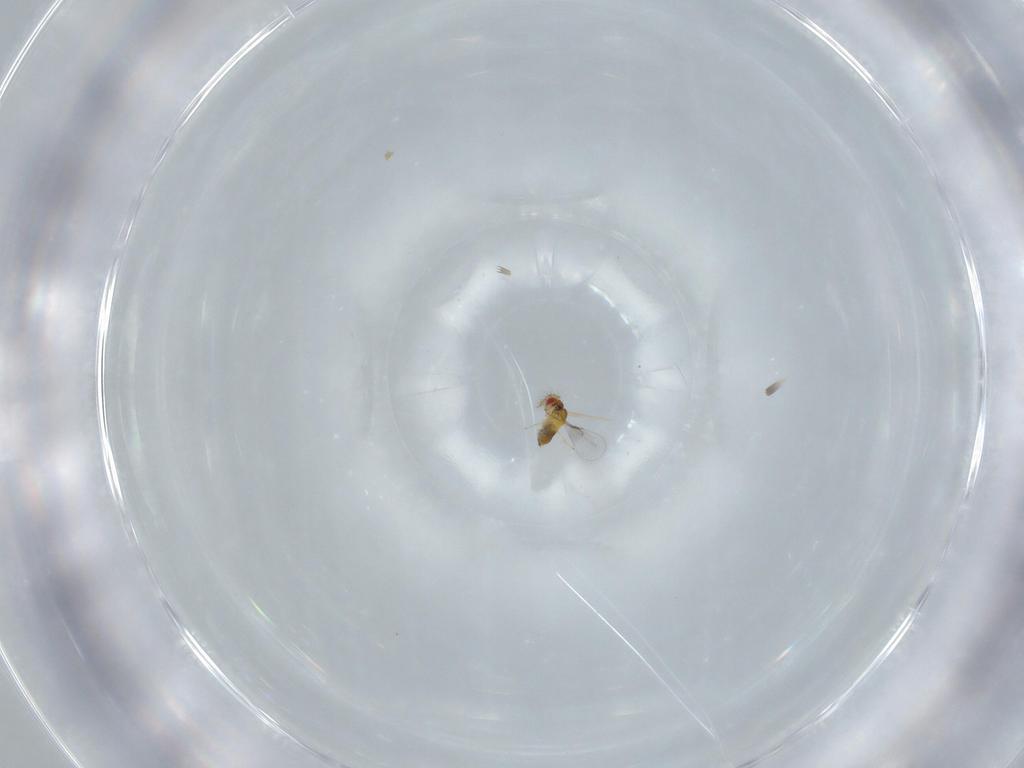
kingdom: Animalia
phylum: Arthropoda
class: Insecta
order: Hymenoptera
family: Trichogrammatidae
